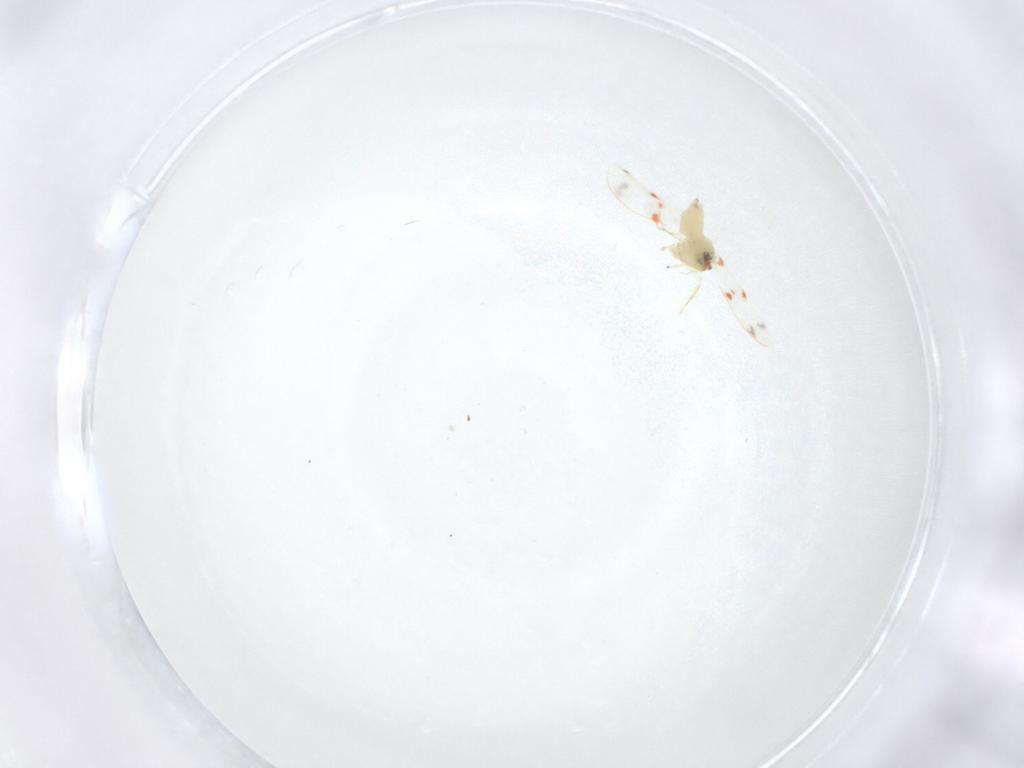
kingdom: Animalia
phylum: Arthropoda
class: Insecta
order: Hemiptera
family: Aleyrodidae
